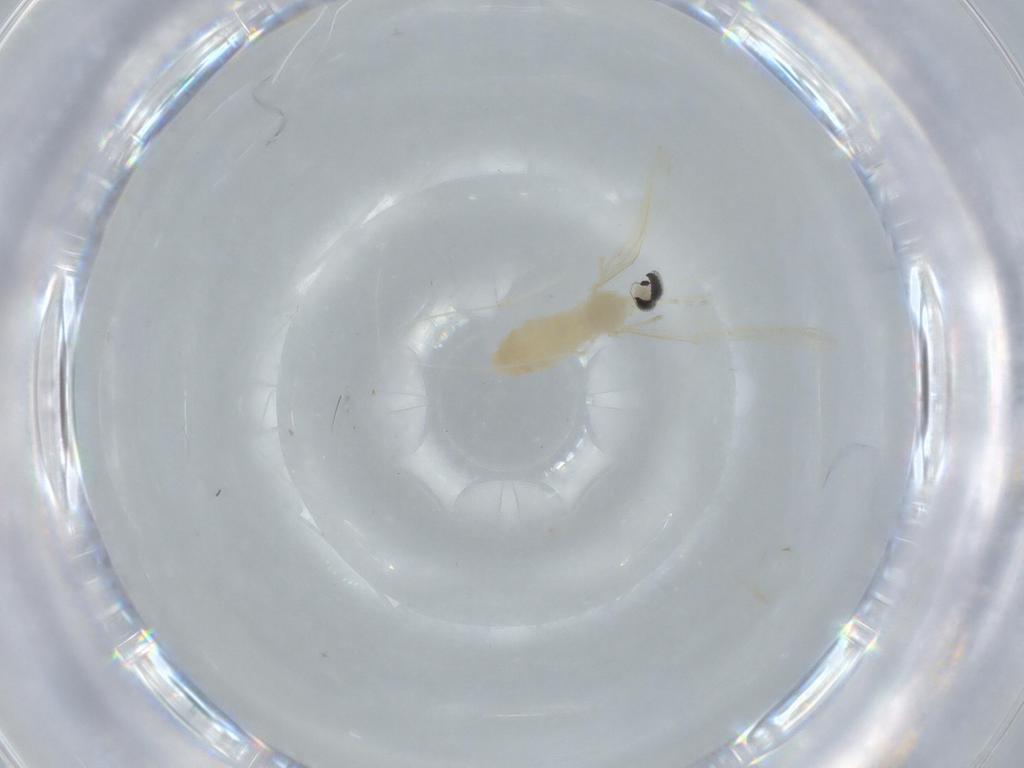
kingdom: Animalia
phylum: Arthropoda
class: Insecta
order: Diptera
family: Cecidomyiidae
